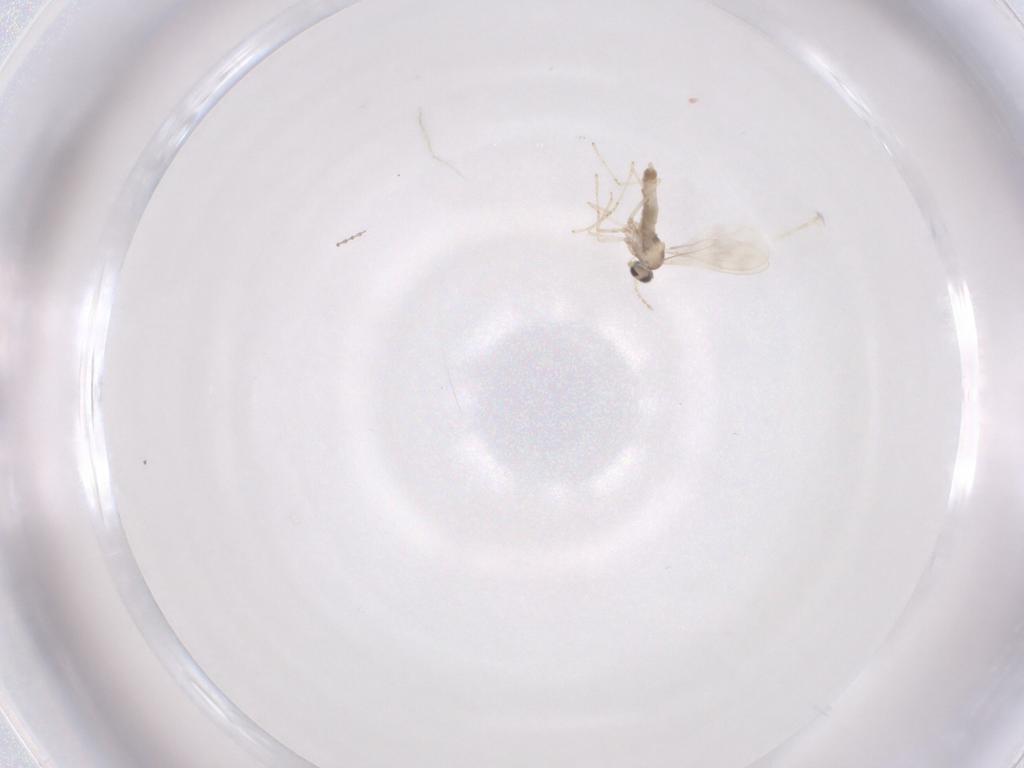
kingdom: Animalia
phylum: Arthropoda
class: Insecta
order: Diptera
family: Cecidomyiidae
